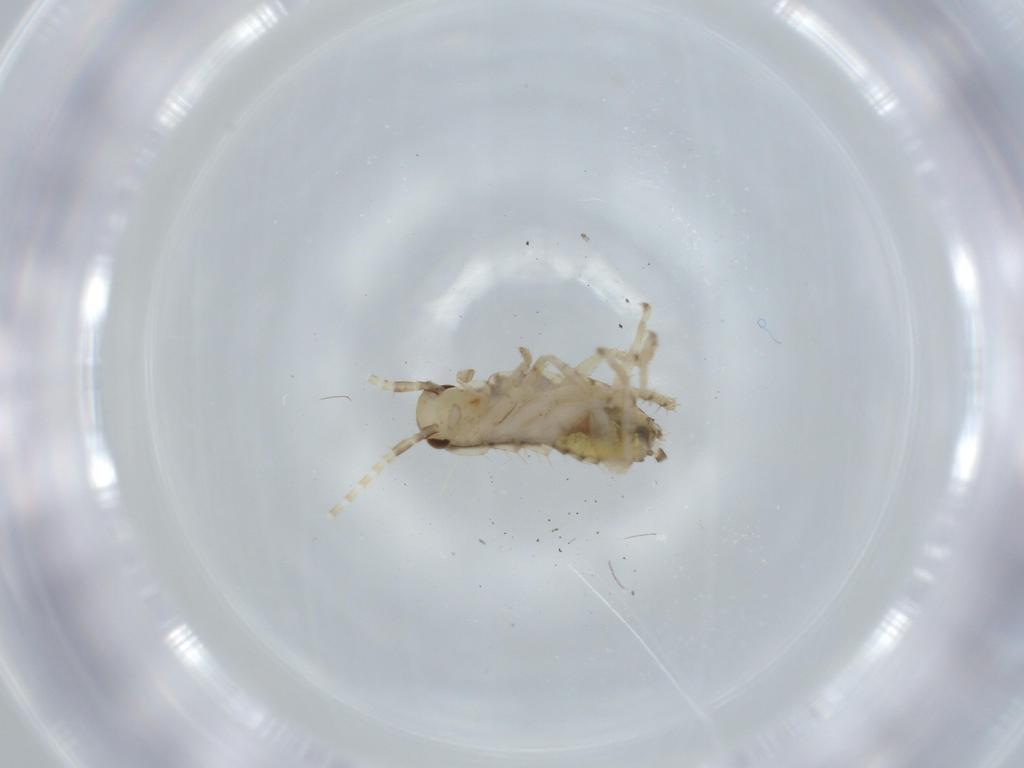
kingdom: Animalia
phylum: Arthropoda
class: Insecta
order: Blattodea
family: Ectobiidae
